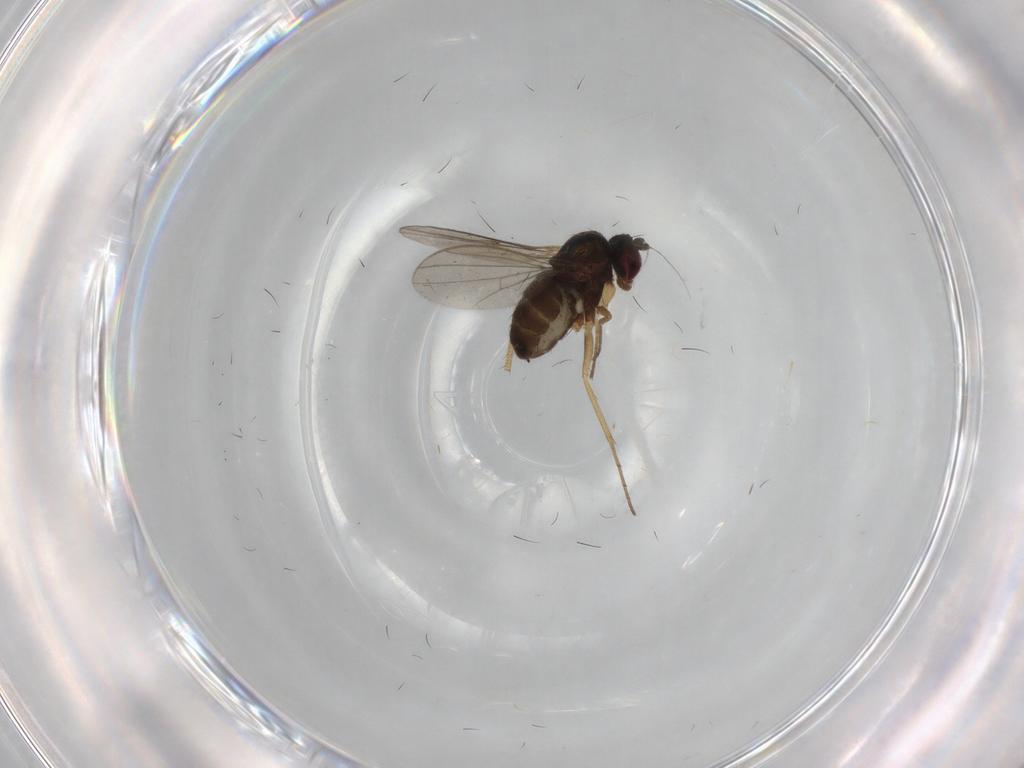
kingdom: Animalia
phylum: Arthropoda
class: Insecta
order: Diptera
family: Dolichopodidae
